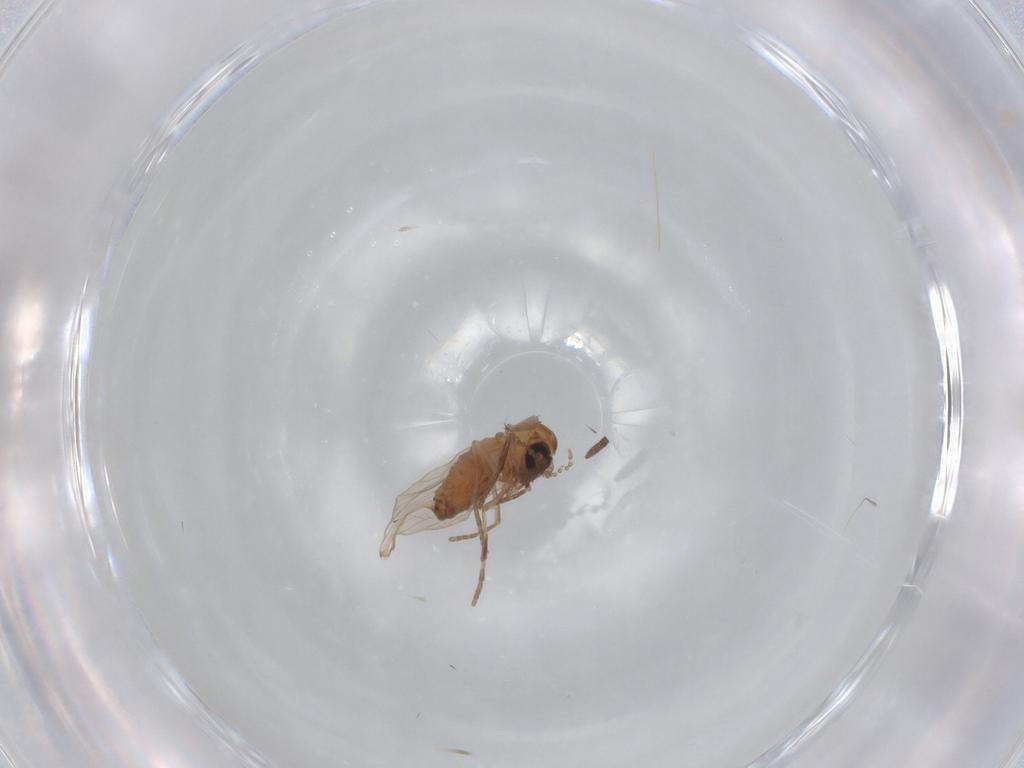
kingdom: Animalia
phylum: Arthropoda
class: Insecta
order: Diptera
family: Psychodidae
